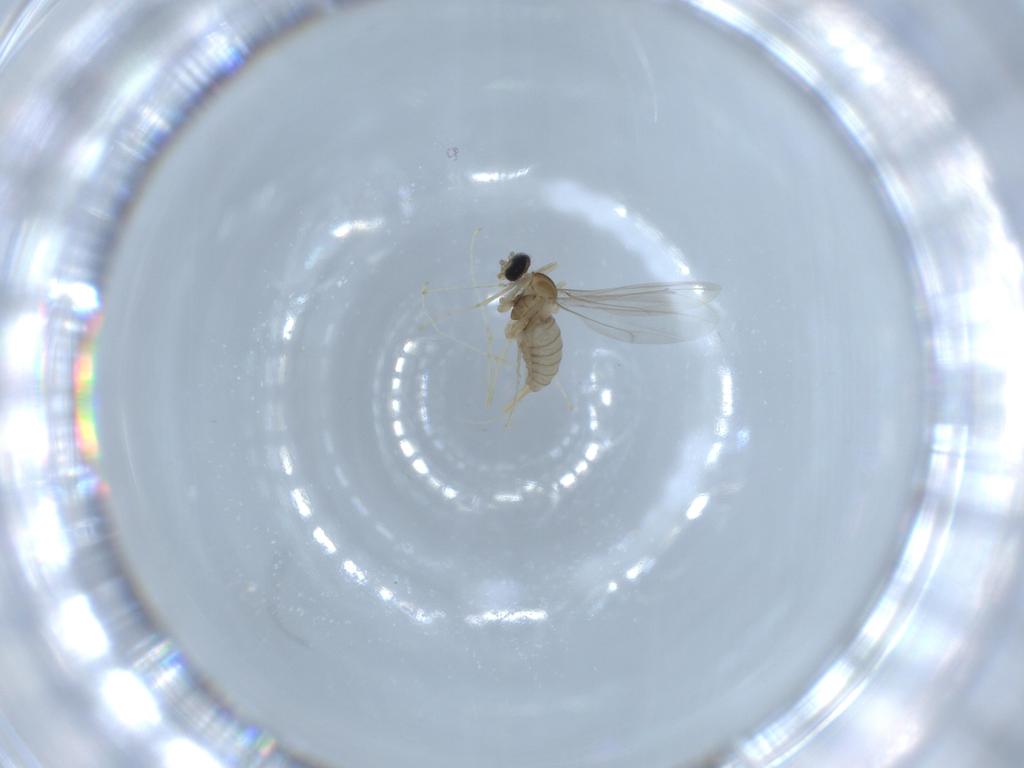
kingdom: Animalia
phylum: Arthropoda
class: Insecta
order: Diptera
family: Cecidomyiidae
